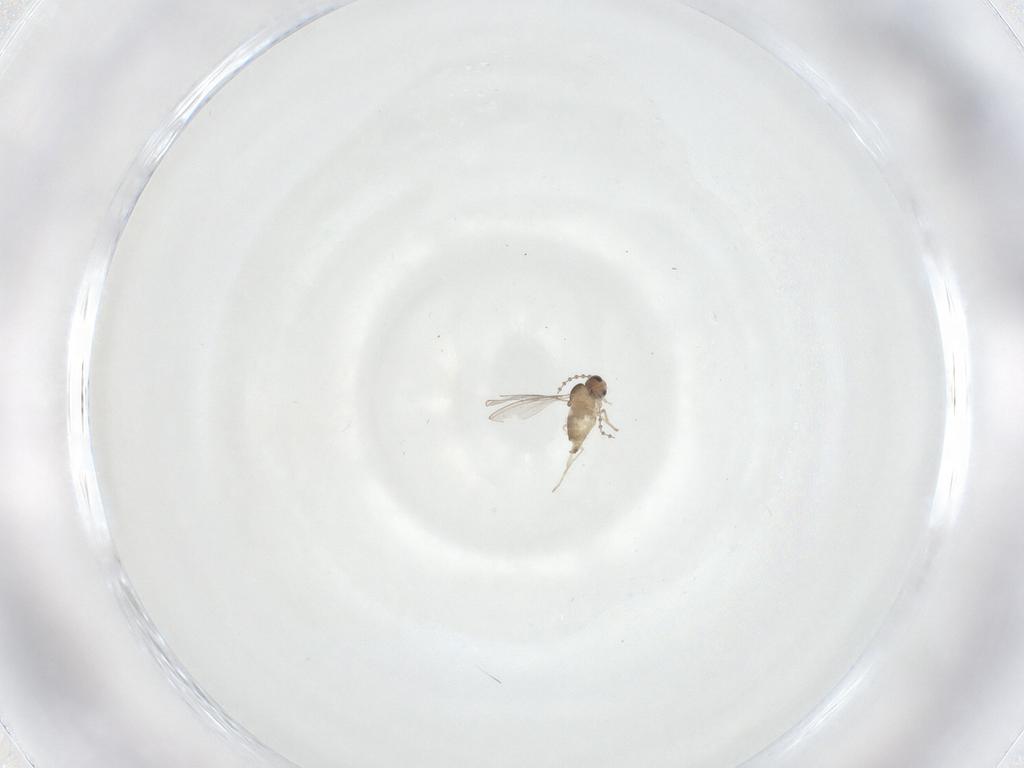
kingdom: Animalia
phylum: Arthropoda
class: Insecta
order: Diptera
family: Cecidomyiidae
